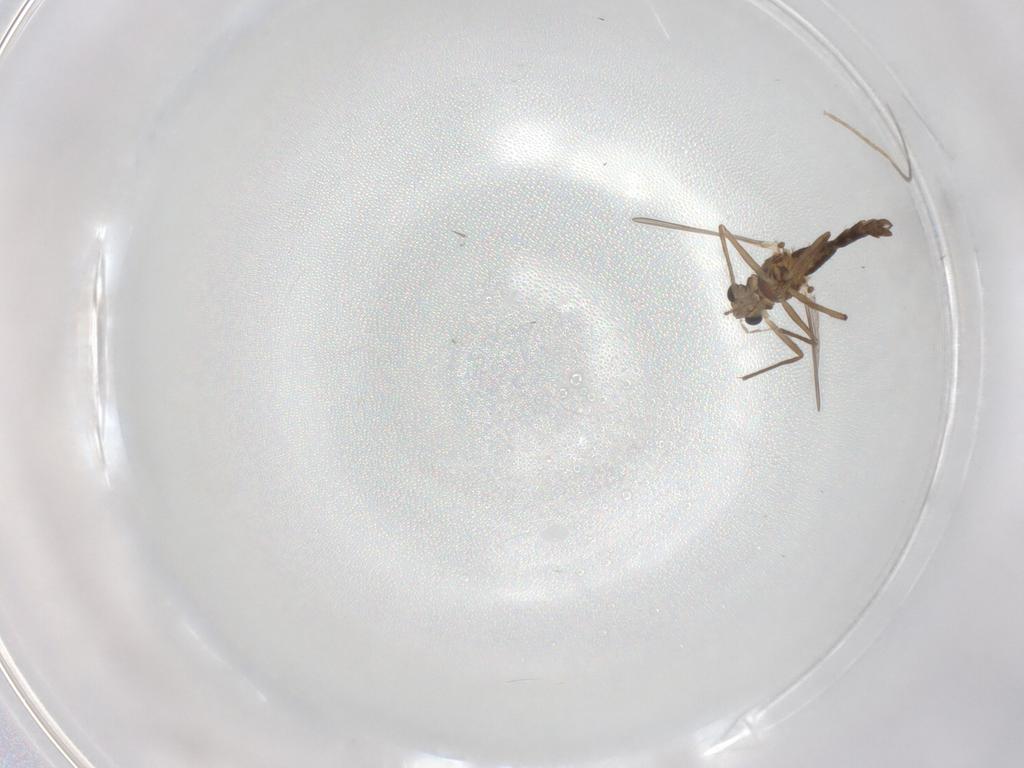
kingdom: Animalia
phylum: Arthropoda
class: Insecta
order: Diptera
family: Chironomidae
